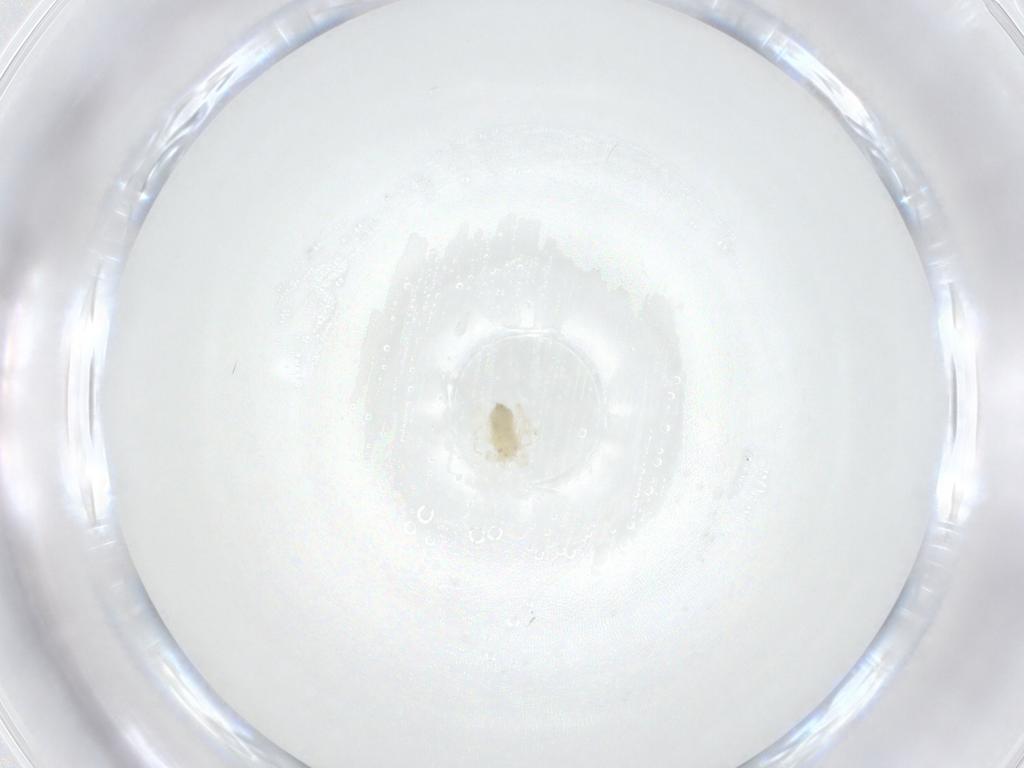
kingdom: Animalia
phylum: Arthropoda
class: Arachnida
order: Trombidiformes
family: Anystidae
